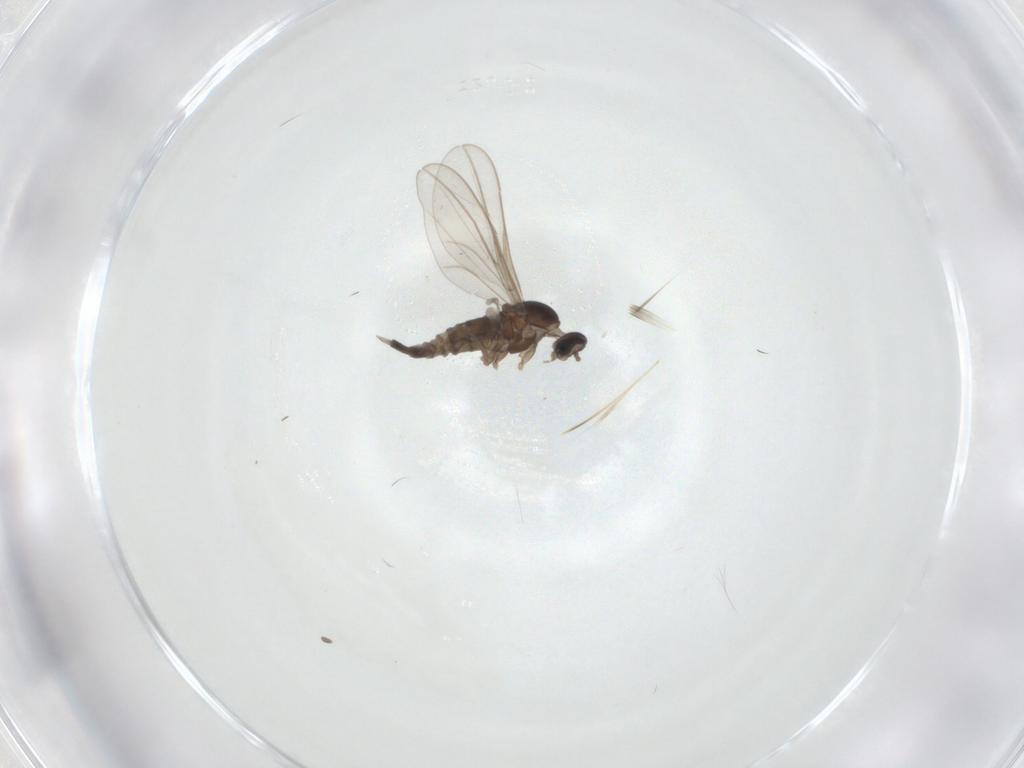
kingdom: Animalia
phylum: Arthropoda
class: Insecta
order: Diptera
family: Cecidomyiidae
